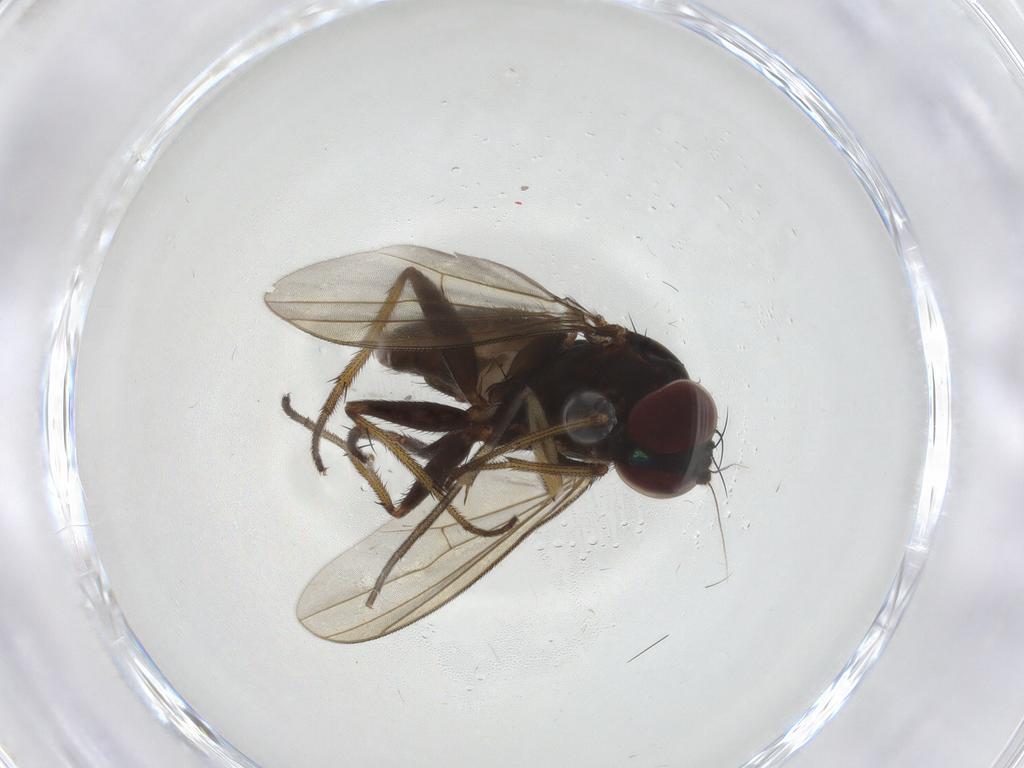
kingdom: Animalia
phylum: Arthropoda
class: Insecta
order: Diptera
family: Dolichopodidae
